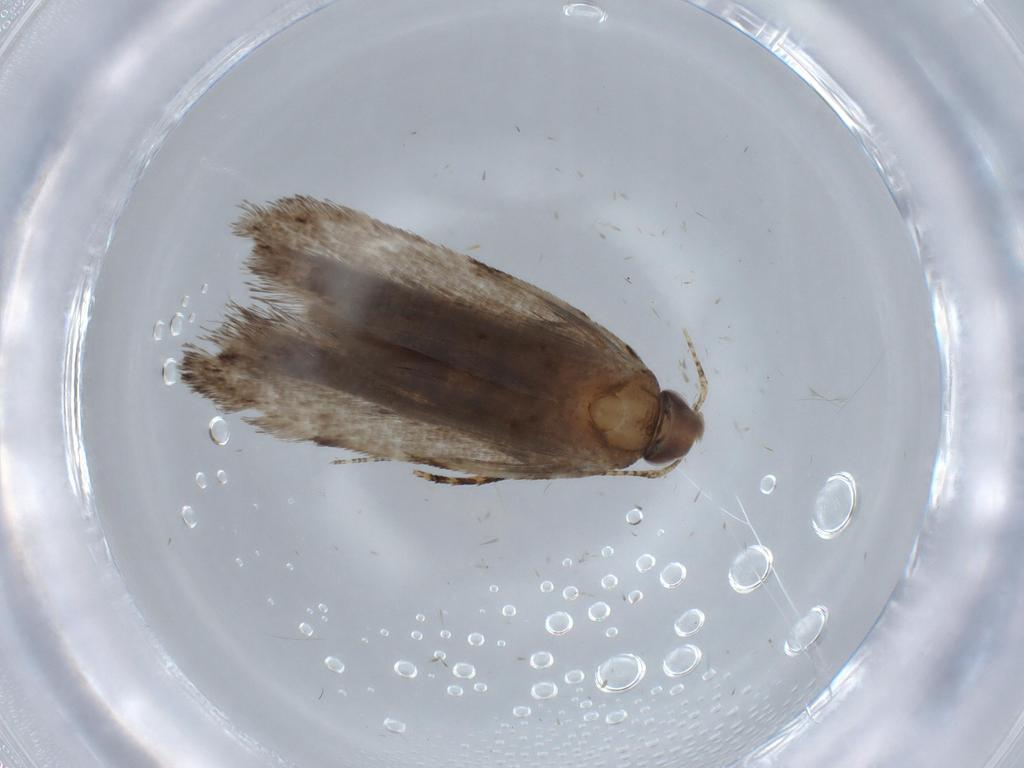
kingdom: Animalia
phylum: Arthropoda
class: Insecta
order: Lepidoptera
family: Gelechiidae
